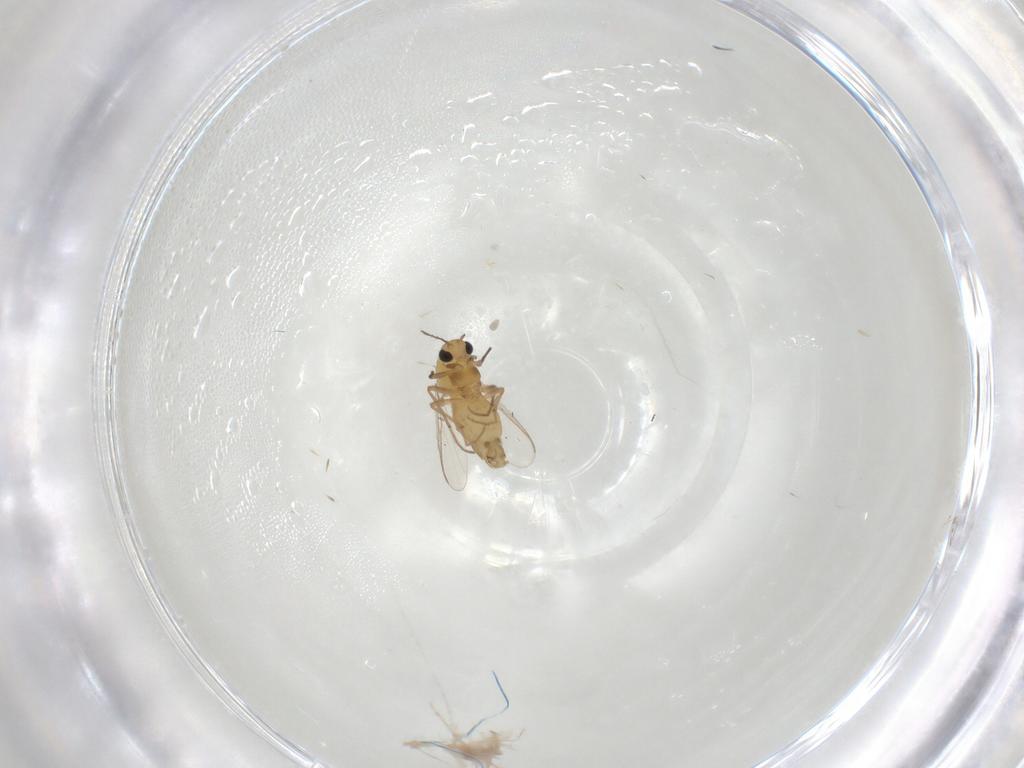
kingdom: Animalia
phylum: Arthropoda
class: Insecta
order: Diptera
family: Chironomidae
